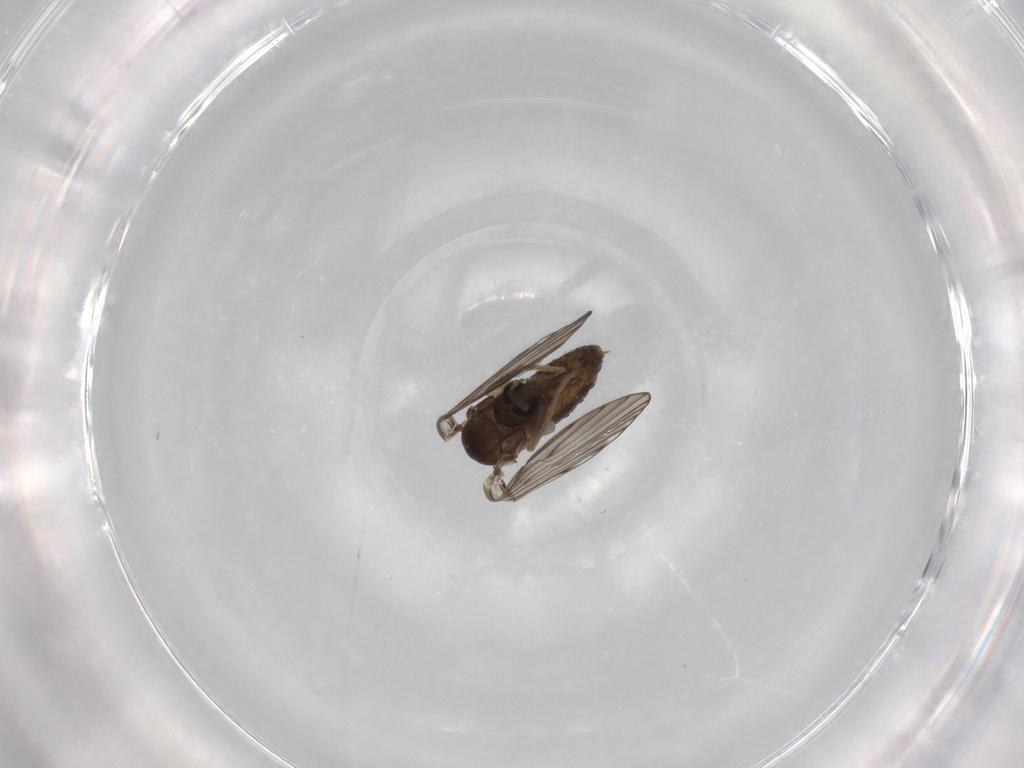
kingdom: Animalia
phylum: Arthropoda
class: Insecta
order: Diptera
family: Psychodidae
